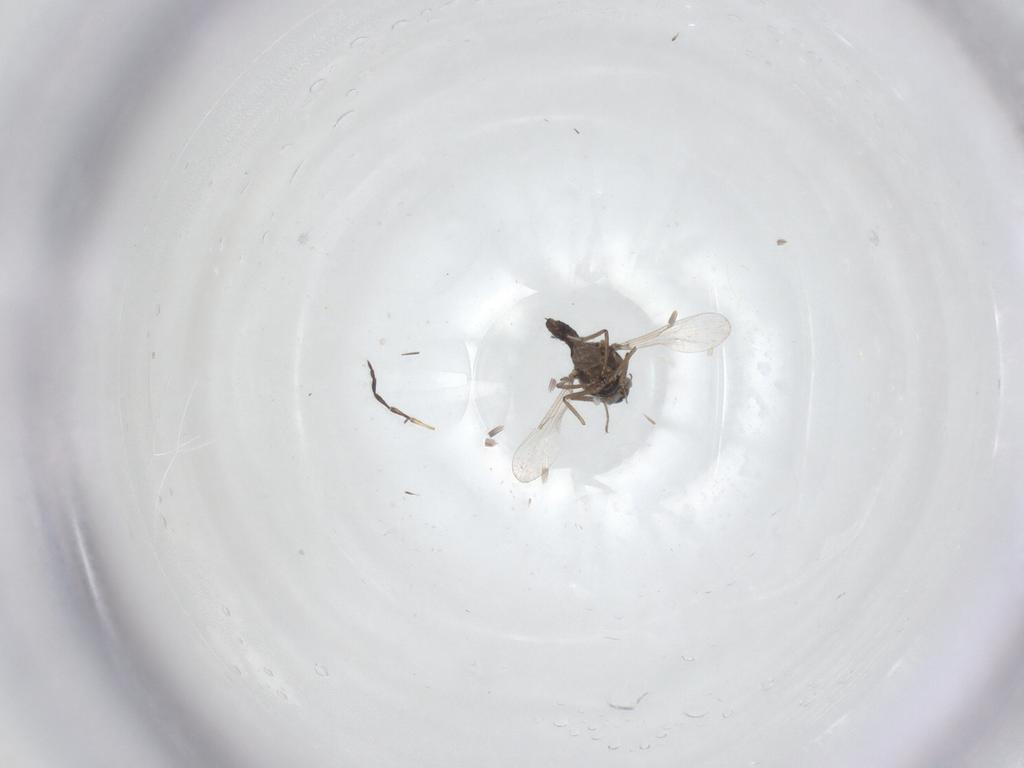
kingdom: Animalia
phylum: Arthropoda
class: Insecta
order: Diptera
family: Ceratopogonidae
